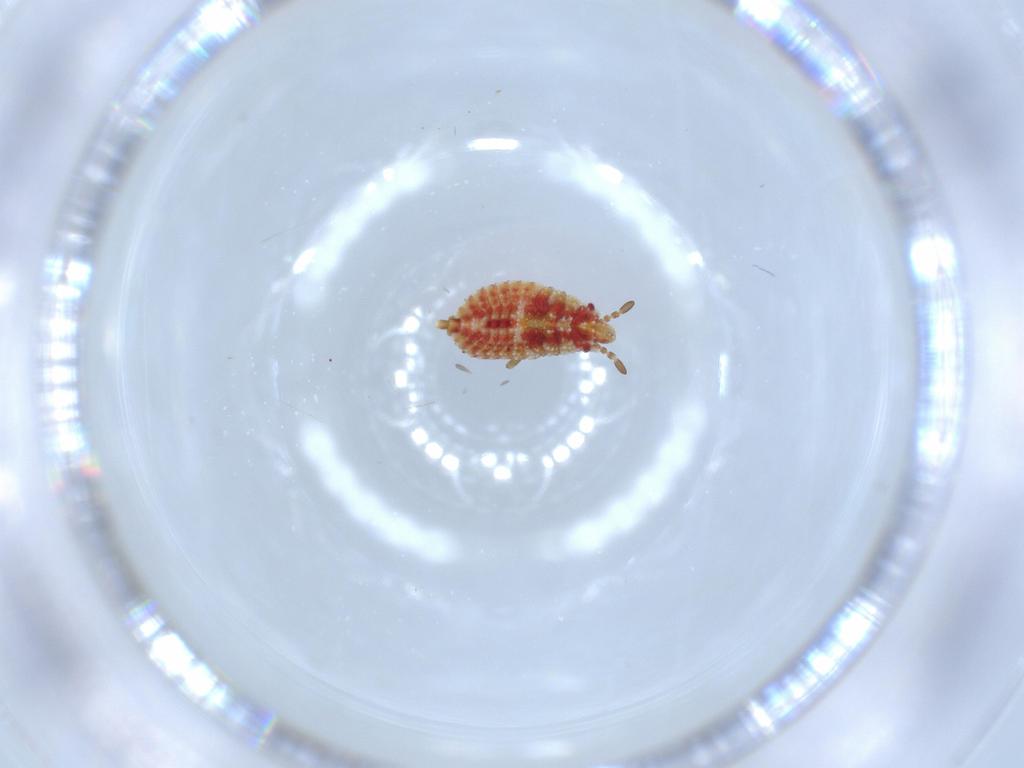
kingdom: Animalia
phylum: Arthropoda
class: Insecta
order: Hemiptera
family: Aradidae
